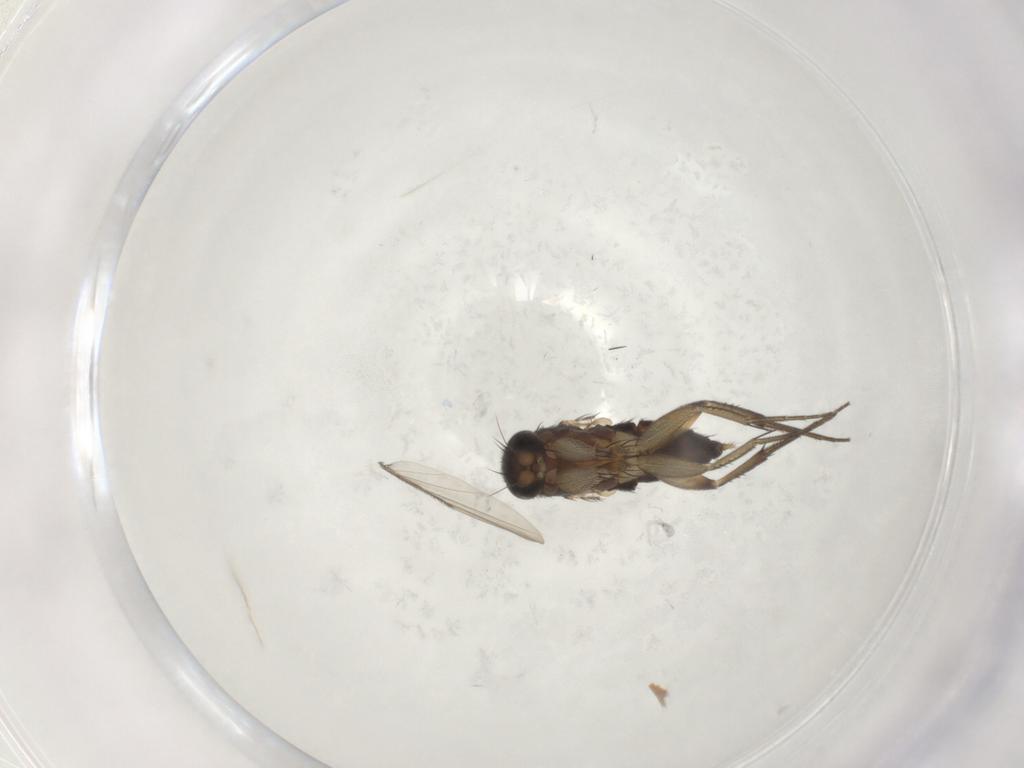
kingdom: Animalia
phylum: Arthropoda
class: Insecta
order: Diptera
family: Phoridae
